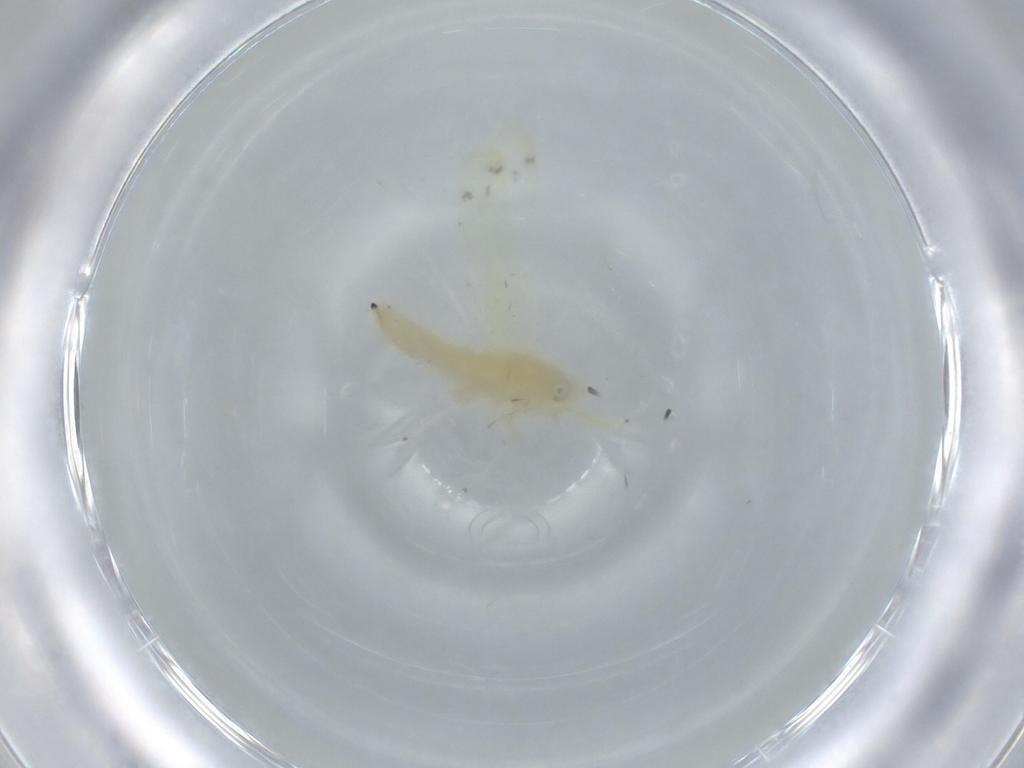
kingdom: Animalia
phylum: Arthropoda
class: Insecta
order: Hemiptera
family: Cicadellidae
